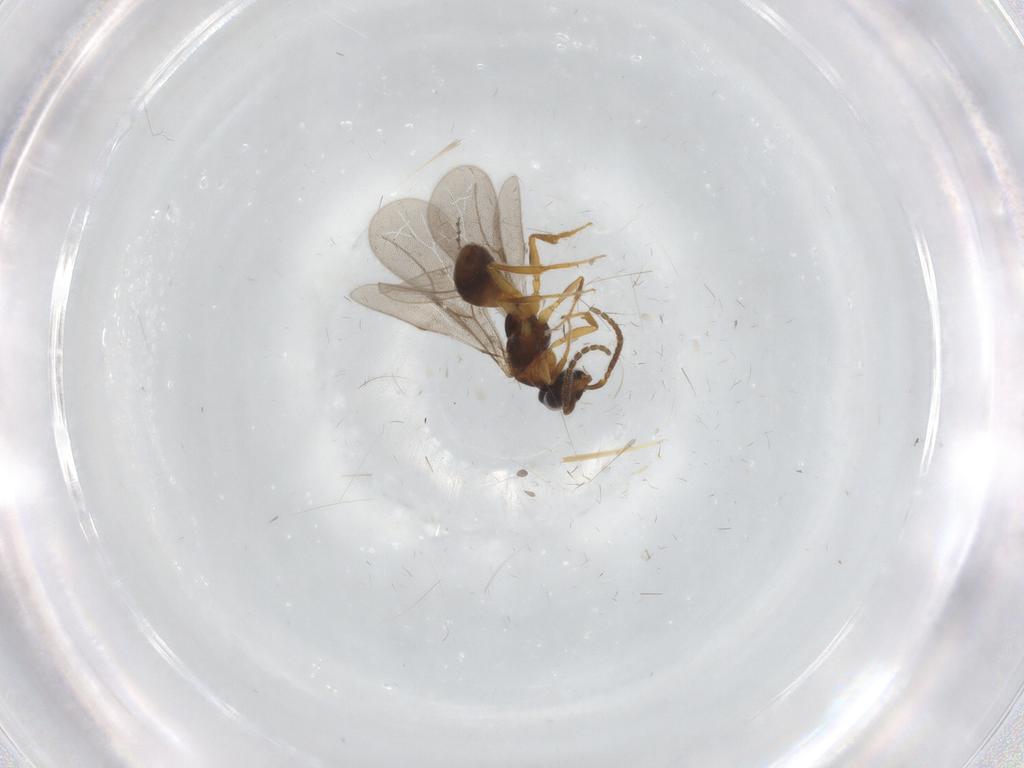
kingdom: Animalia
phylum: Arthropoda
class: Insecta
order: Hymenoptera
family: Bethylidae
